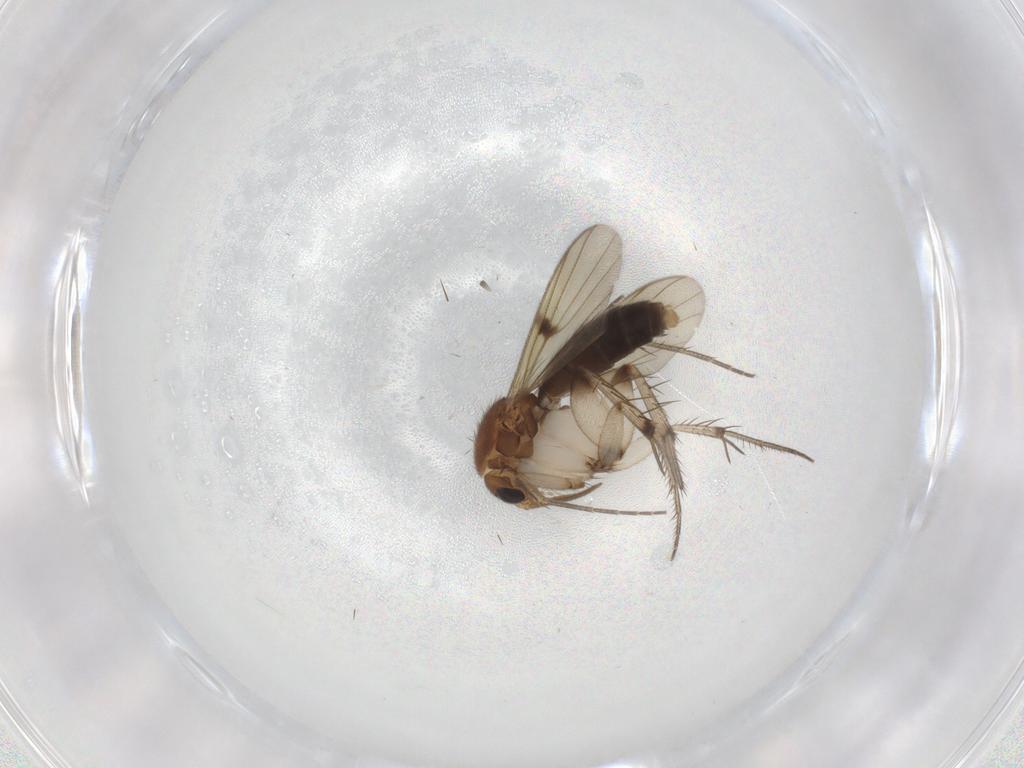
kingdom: Animalia
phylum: Arthropoda
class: Insecta
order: Diptera
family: Mycetophilidae
